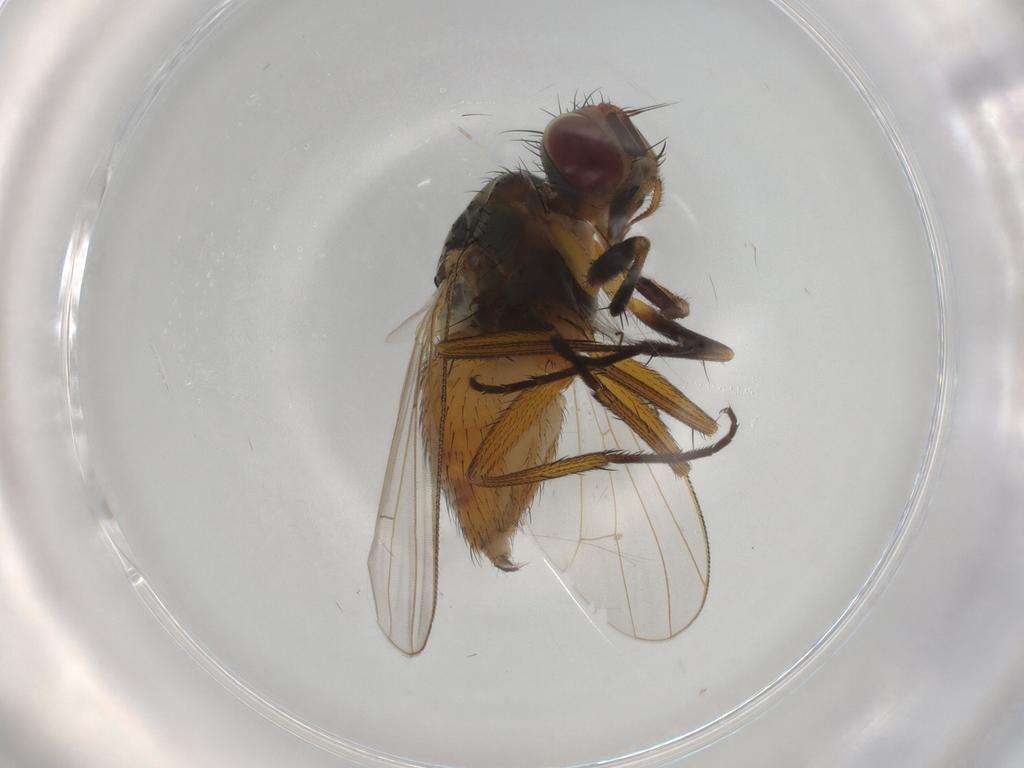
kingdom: Animalia
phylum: Arthropoda
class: Insecta
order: Diptera
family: Muscidae
